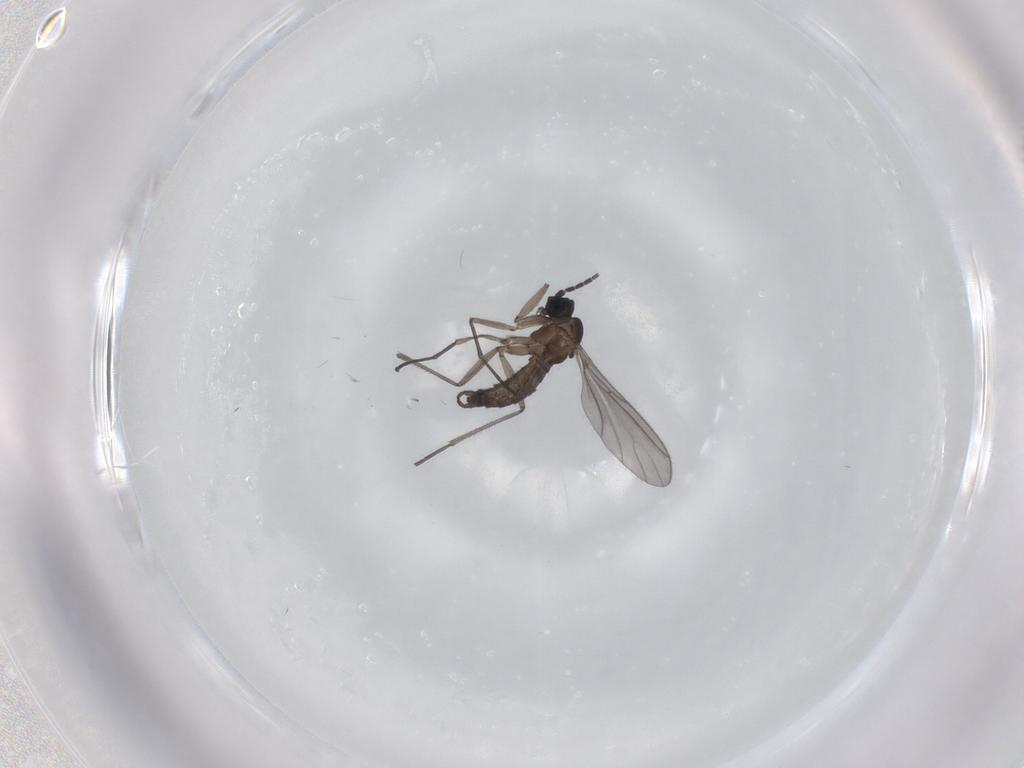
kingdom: Animalia
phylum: Arthropoda
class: Insecta
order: Diptera
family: Sciaridae
